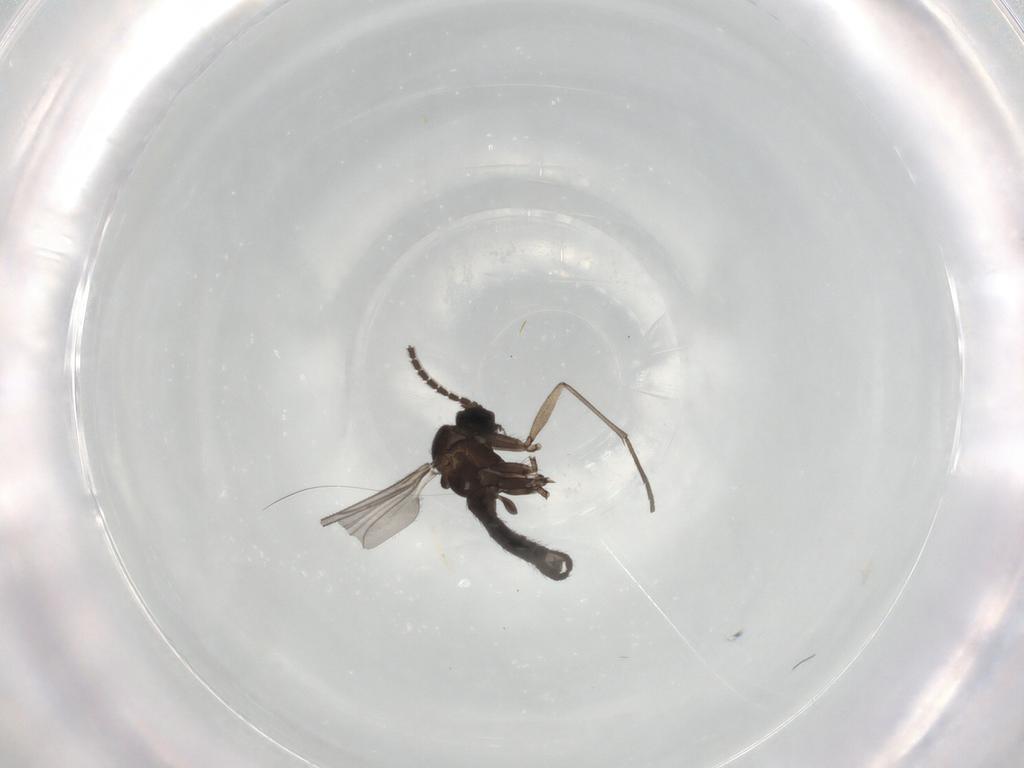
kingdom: Animalia
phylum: Arthropoda
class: Insecta
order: Diptera
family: Sciaridae
